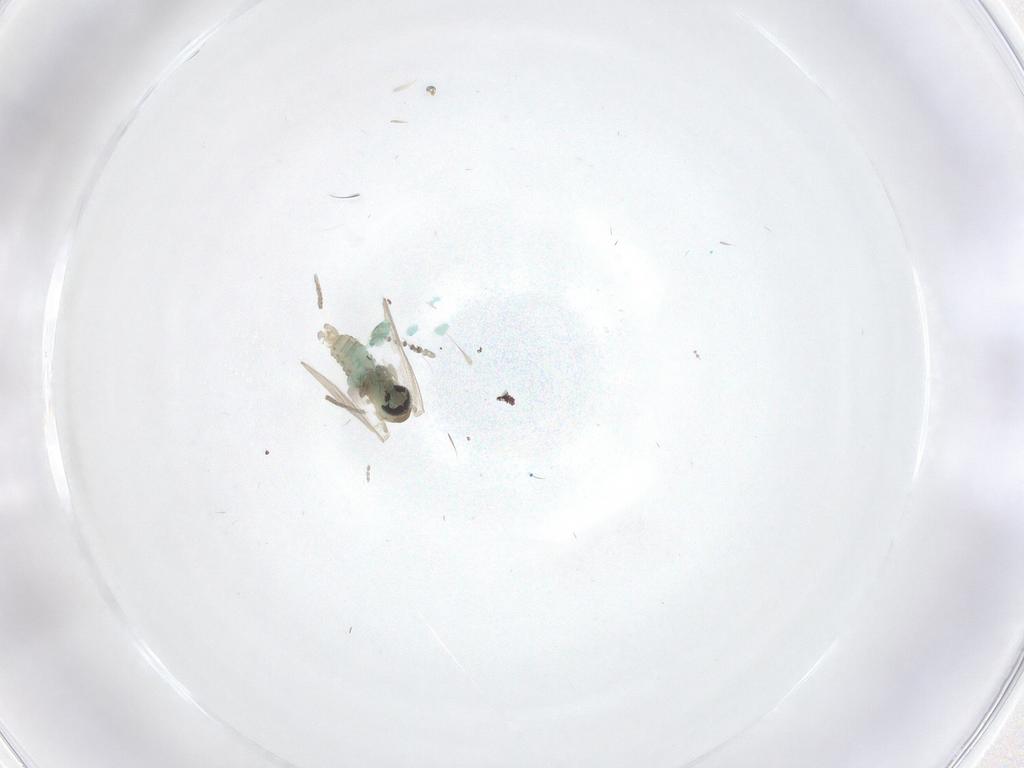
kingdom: Animalia
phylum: Arthropoda
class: Insecta
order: Diptera
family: Psychodidae
